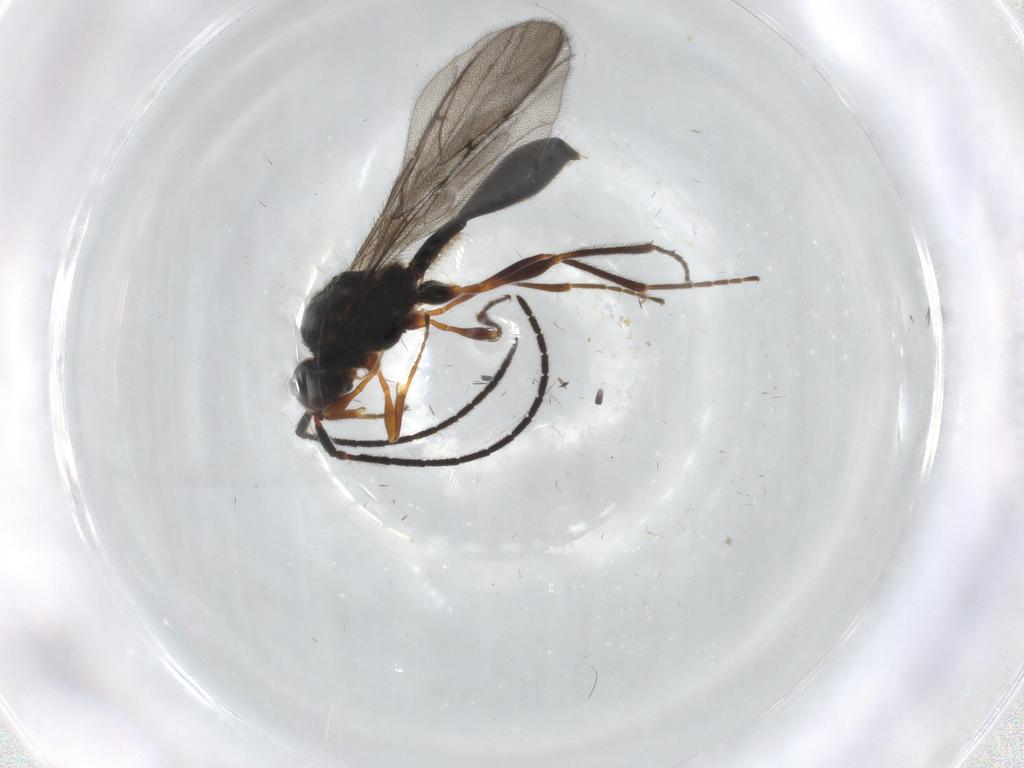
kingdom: Animalia
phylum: Arthropoda
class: Insecta
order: Hymenoptera
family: Diapriidae
